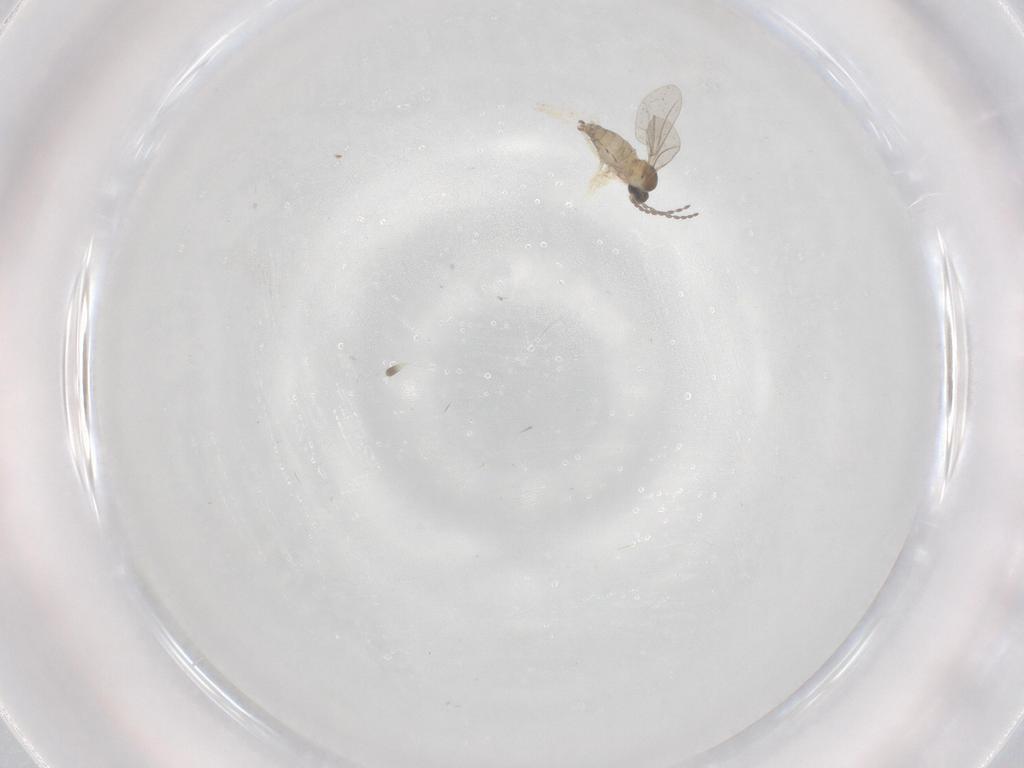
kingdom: Animalia
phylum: Arthropoda
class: Insecta
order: Diptera
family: Cecidomyiidae
